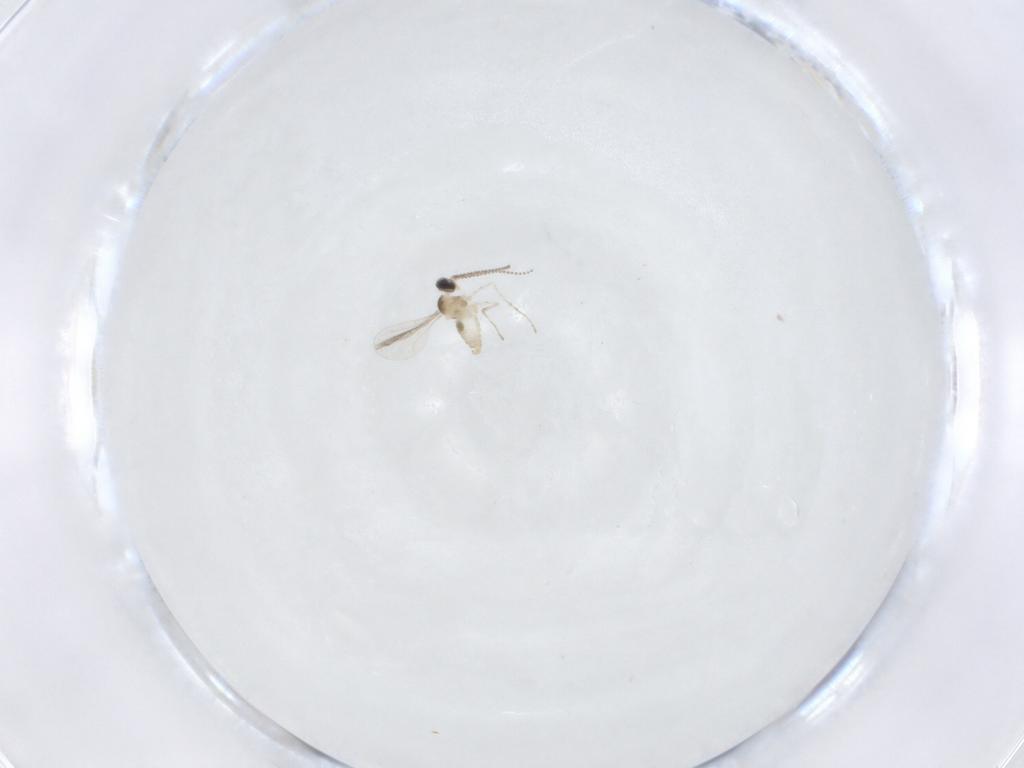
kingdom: Animalia
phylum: Arthropoda
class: Insecta
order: Diptera
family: Cecidomyiidae
